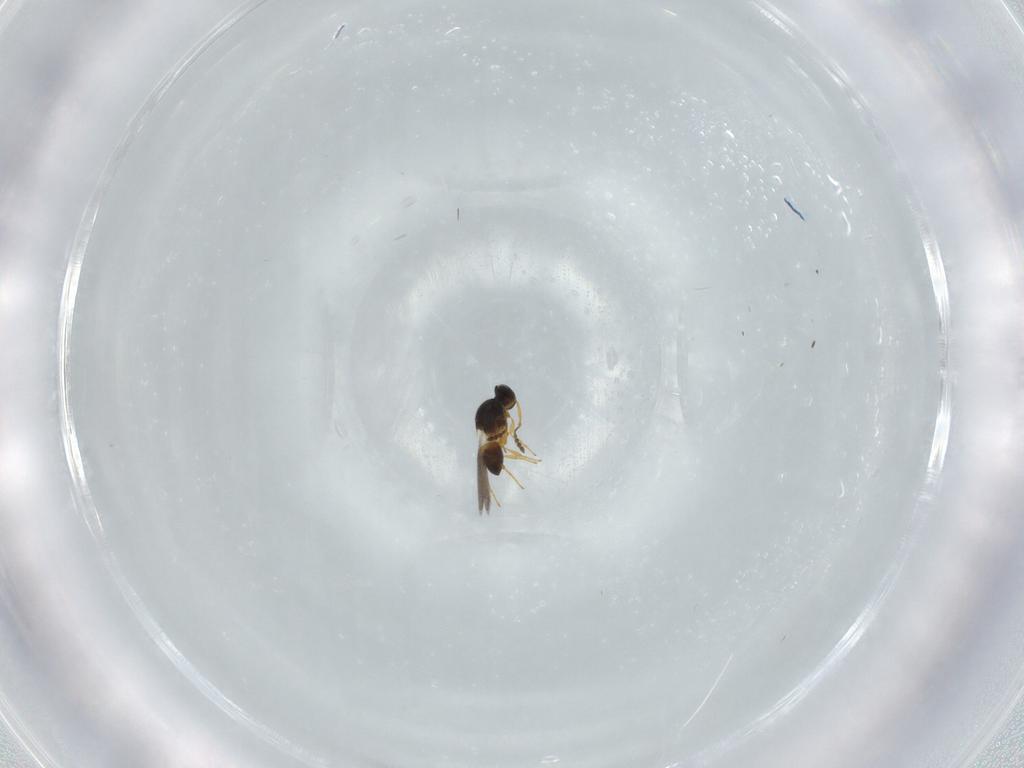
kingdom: Animalia
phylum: Arthropoda
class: Insecta
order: Hymenoptera
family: Platygastridae
